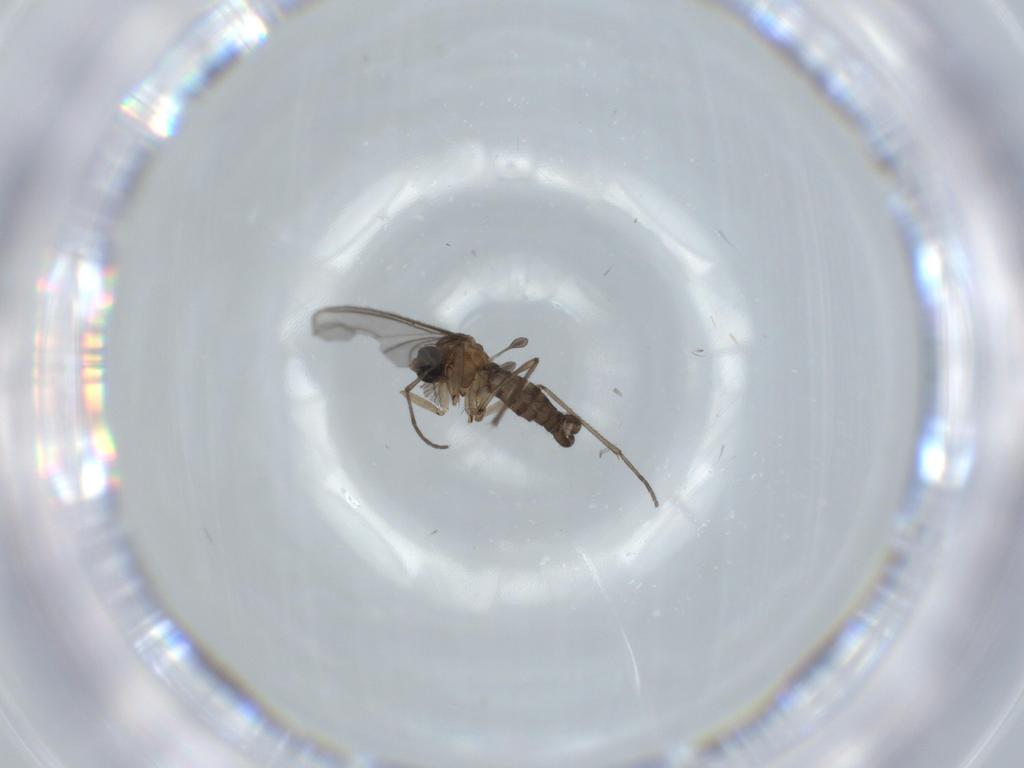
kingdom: Animalia
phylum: Arthropoda
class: Insecta
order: Diptera
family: Sciaridae
